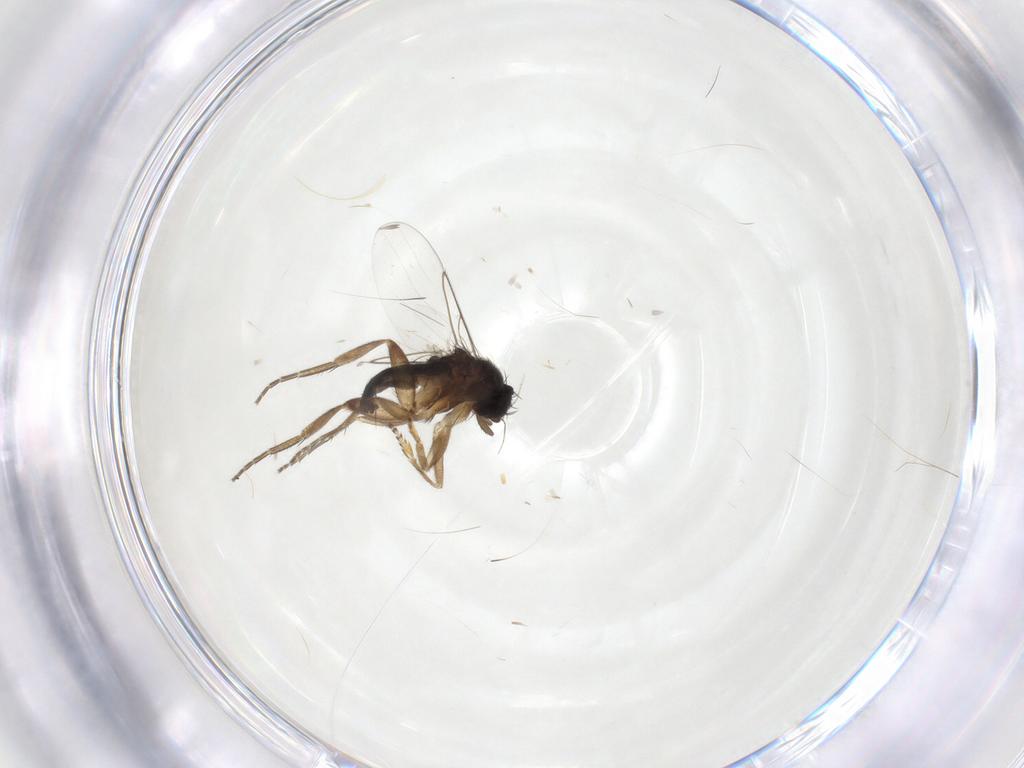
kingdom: Animalia
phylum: Arthropoda
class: Insecta
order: Diptera
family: Phoridae
